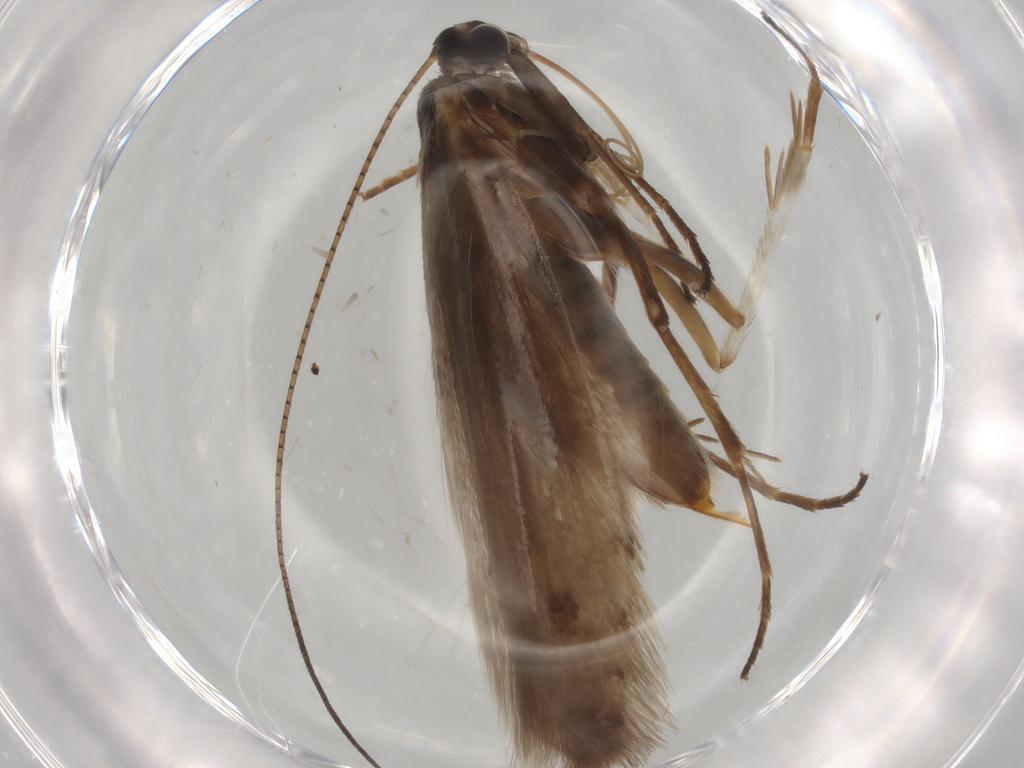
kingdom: Animalia
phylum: Arthropoda
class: Insecta
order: Lepidoptera
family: Adelidae
